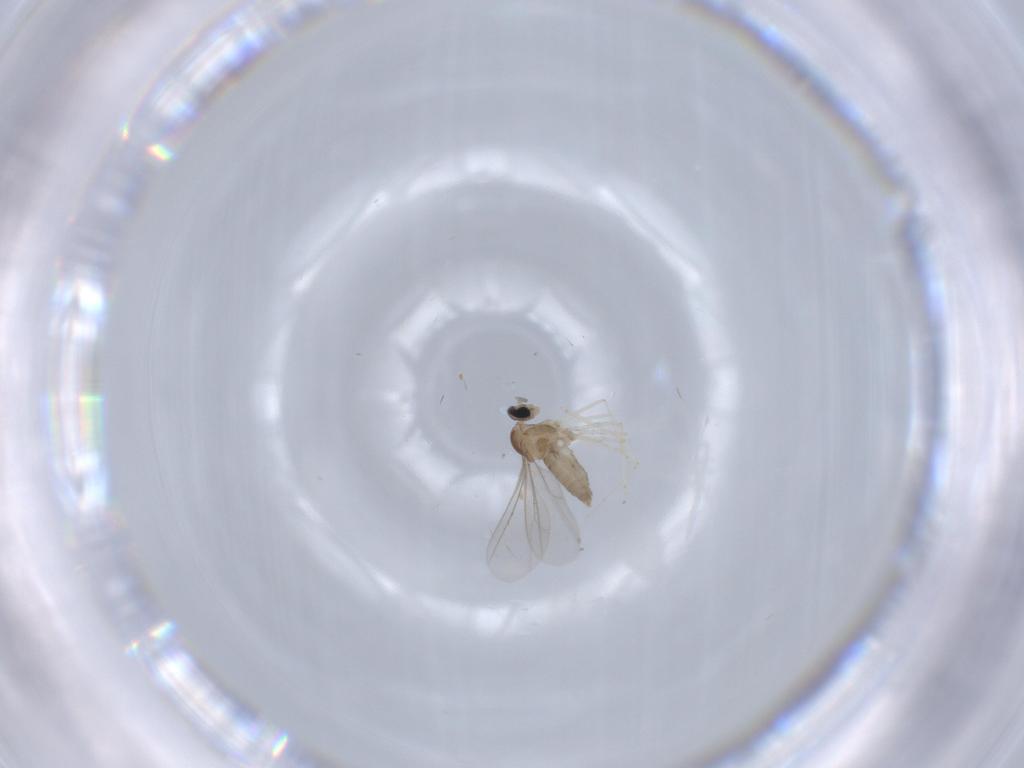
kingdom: Animalia
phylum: Arthropoda
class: Insecta
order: Diptera
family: Cecidomyiidae
